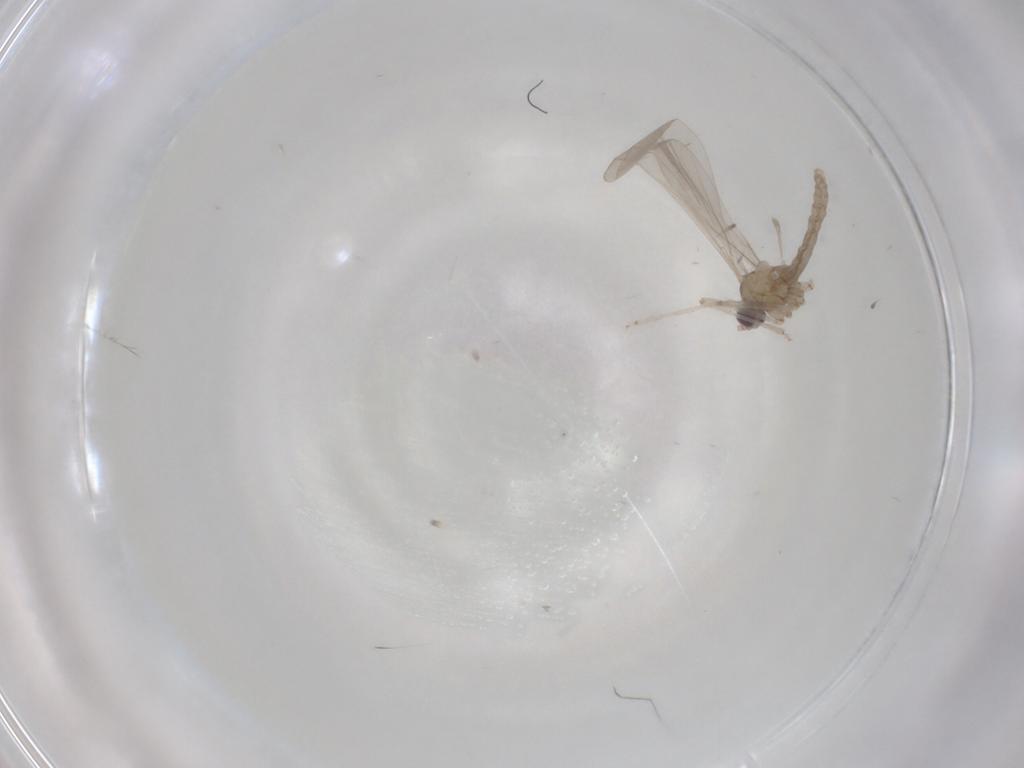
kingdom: Animalia
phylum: Arthropoda
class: Insecta
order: Diptera
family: Cecidomyiidae
